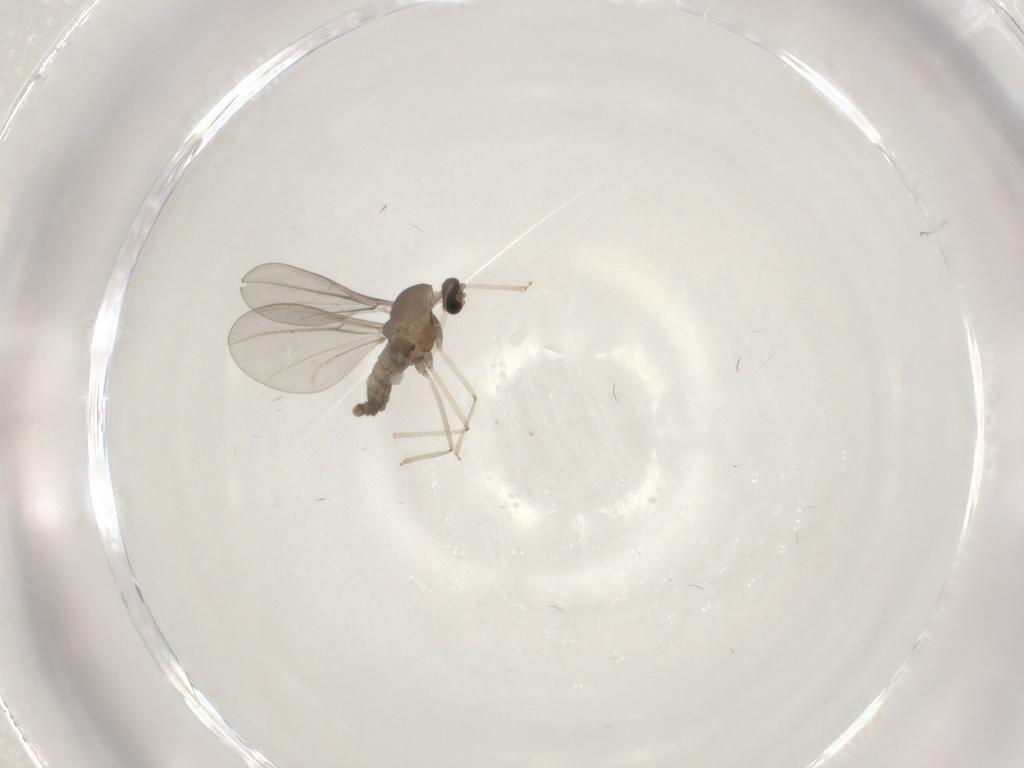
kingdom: Animalia
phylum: Arthropoda
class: Insecta
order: Diptera
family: Cecidomyiidae
